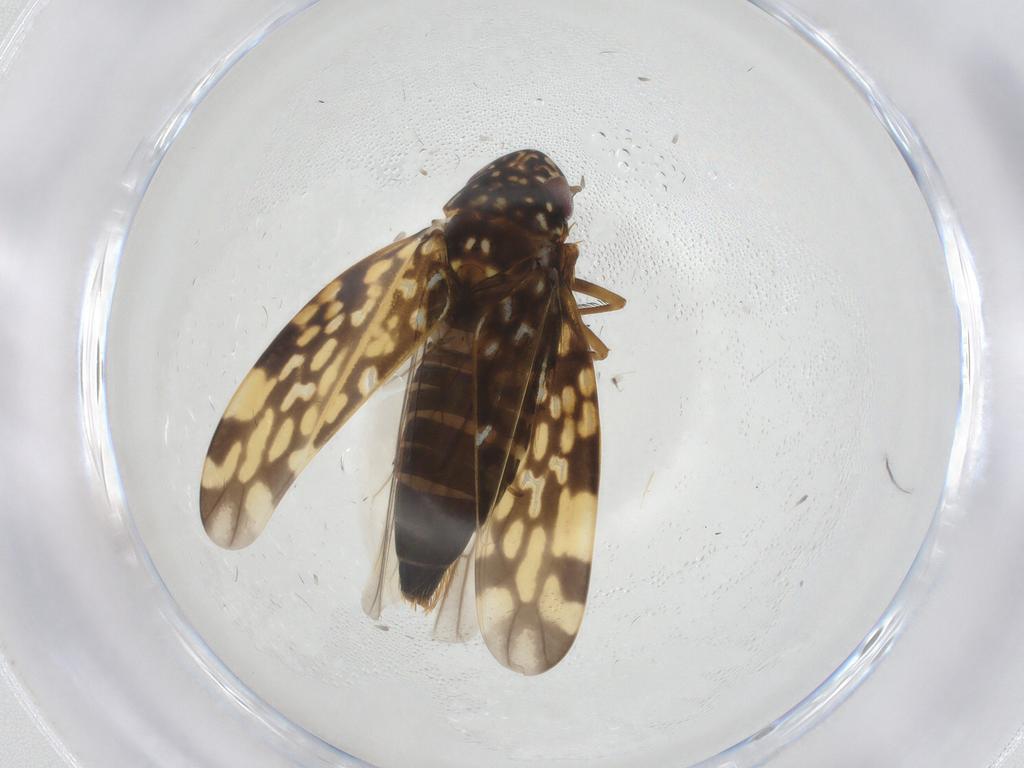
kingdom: Animalia
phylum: Arthropoda
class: Insecta
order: Hemiptera
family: Cicadellidae
